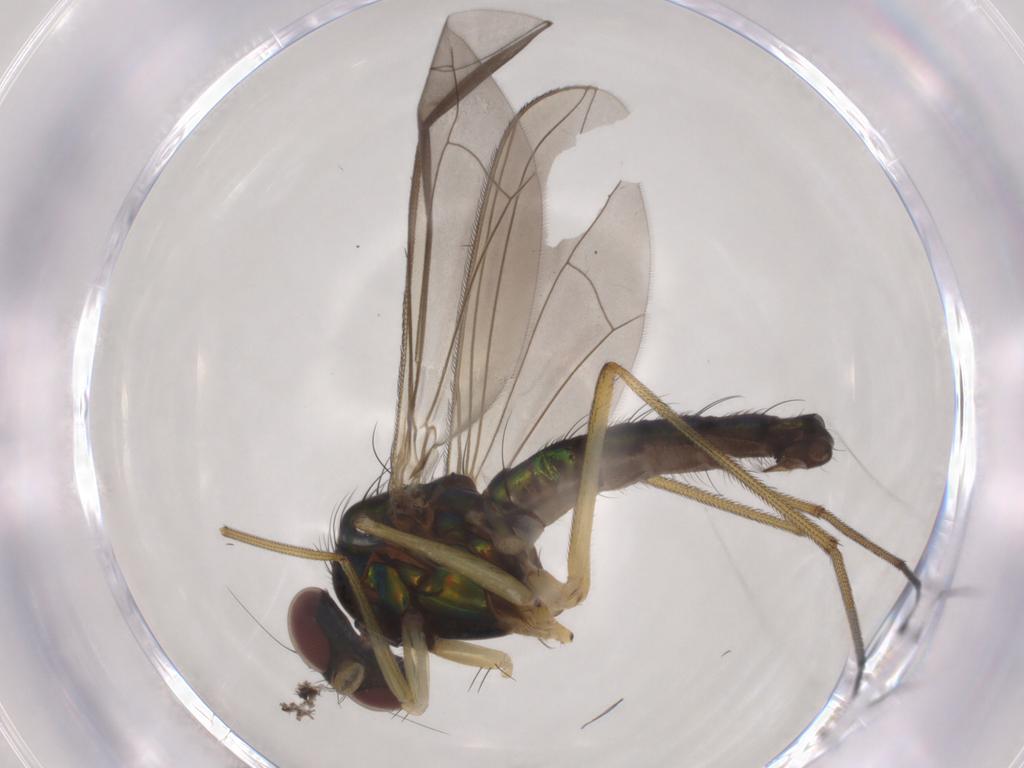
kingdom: Animalia
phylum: Arthropoda
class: Insecta
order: Diptera
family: Dolichopodidae
